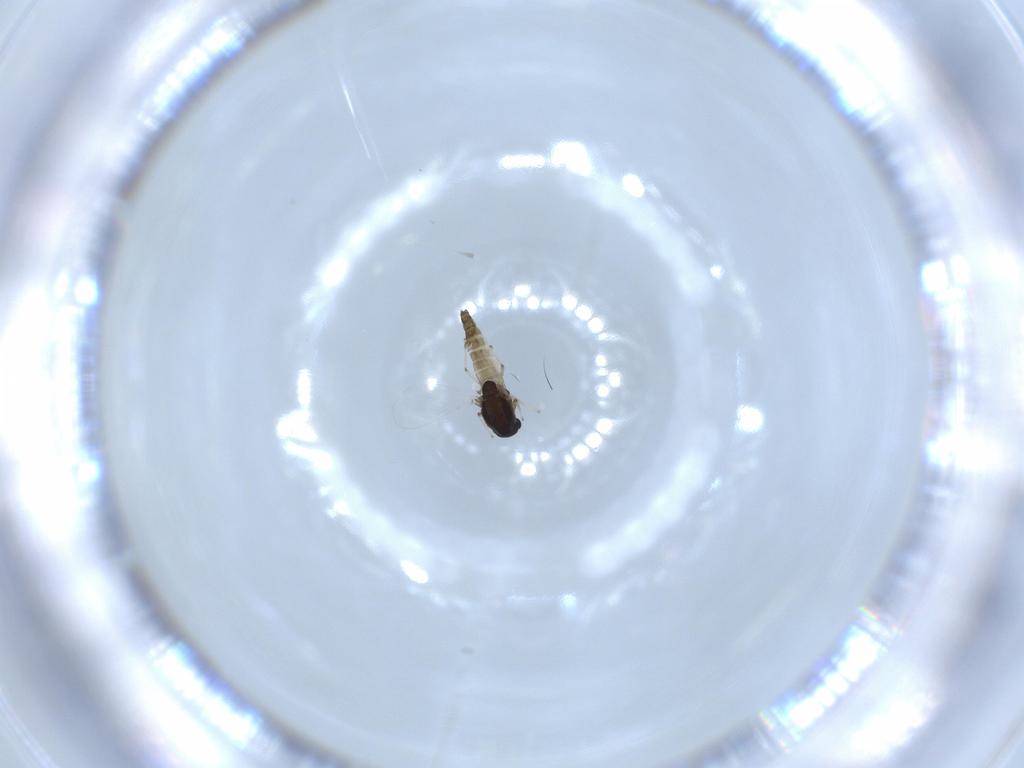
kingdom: Animalia
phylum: Arthropoda
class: Insecta
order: Diptera
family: Chironomidae
